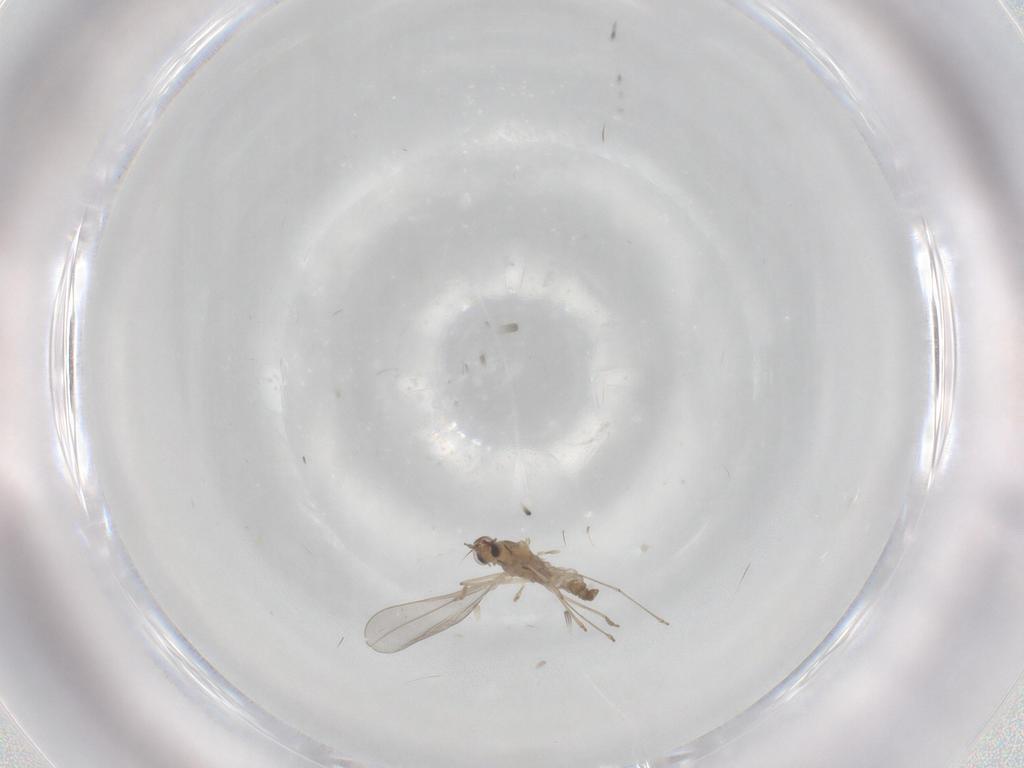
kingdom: Animalia
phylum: Arthropoda
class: Insecta
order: Diptera
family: Cecidomyiidae
